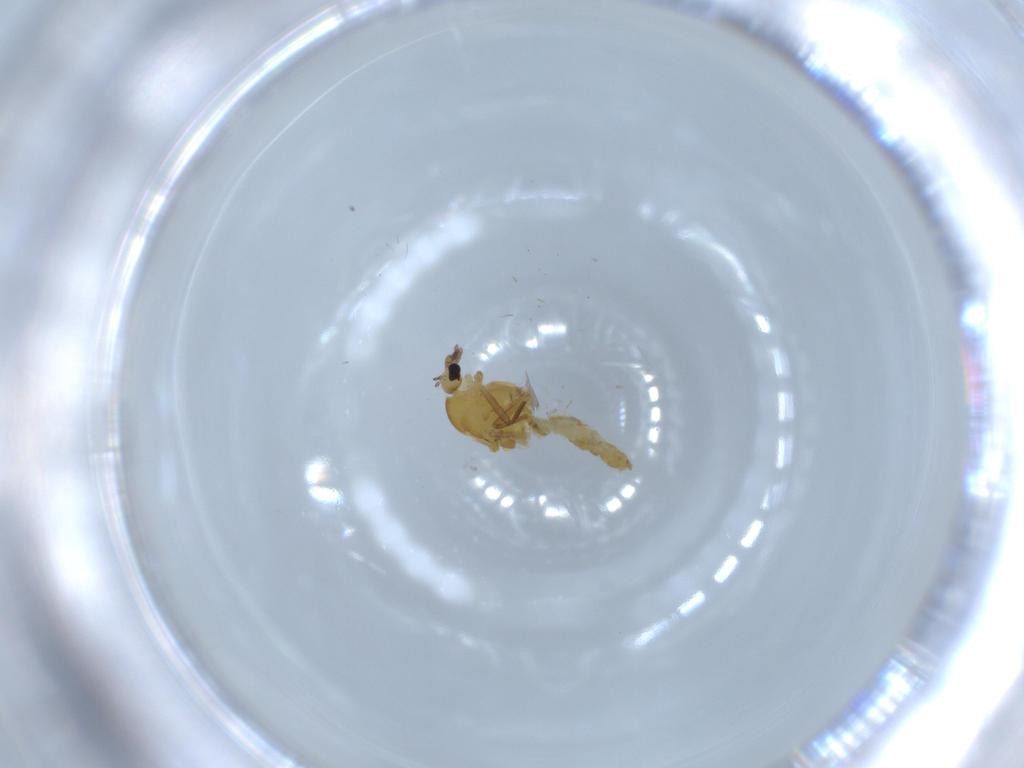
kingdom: Animalia
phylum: Arthropoda
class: Insecta
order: Diptera
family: Chironomidae
